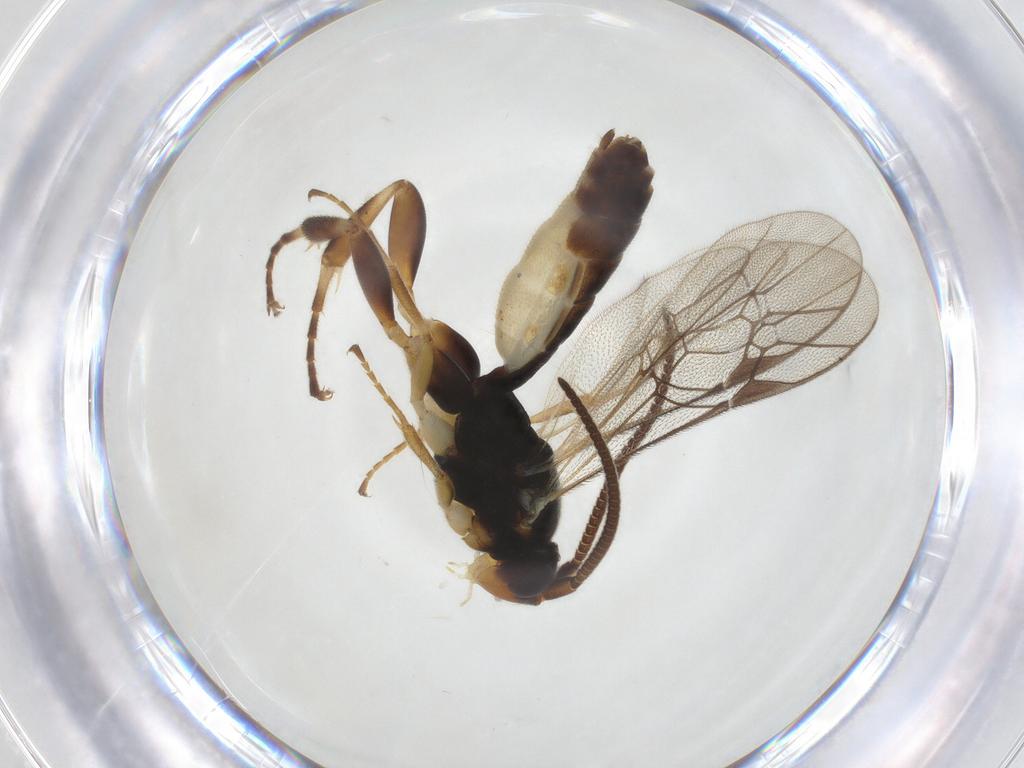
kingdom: Animalia
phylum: Arthropoda
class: Insecta
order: Hymenoptera
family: Ichneumonidae
